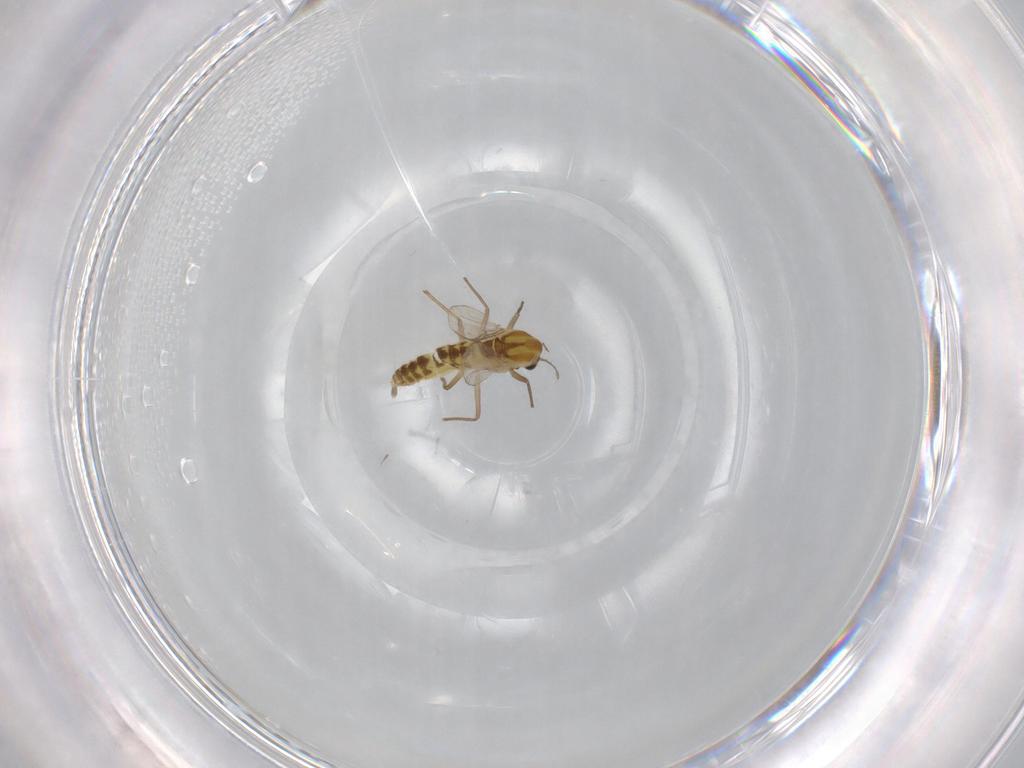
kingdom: Animalia
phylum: Arthropoda
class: Insecta
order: Diptera
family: Chironomidae
